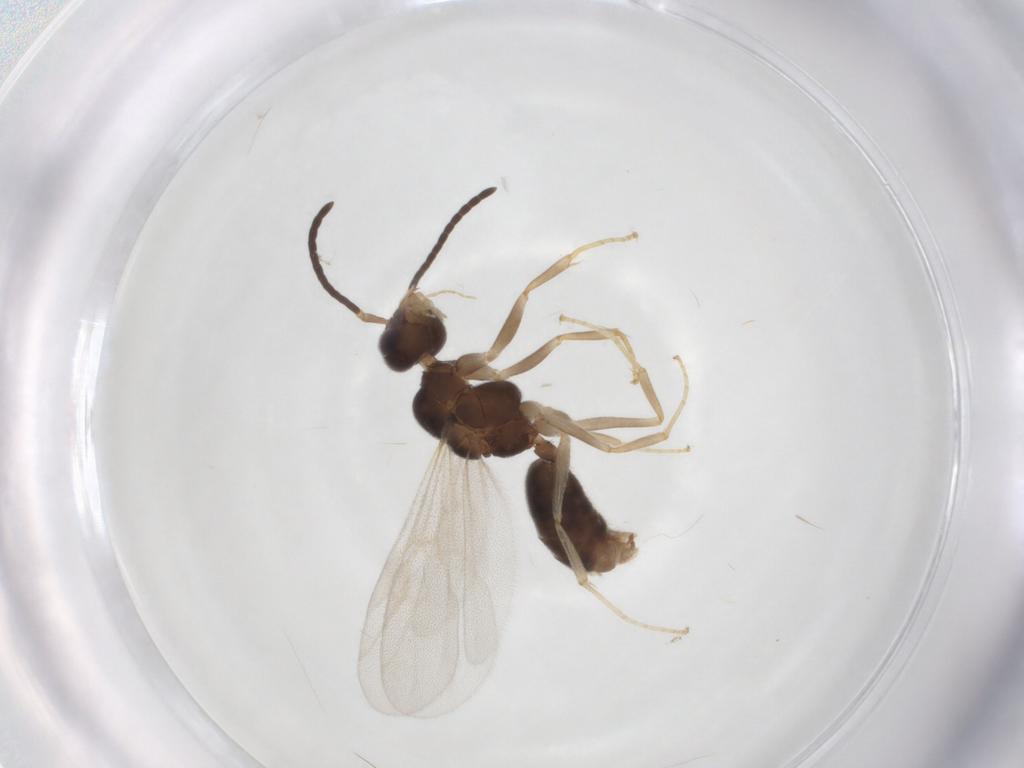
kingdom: Animalia
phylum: Arthropoda
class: Insecta
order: Hymenoptera
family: Formicidae
